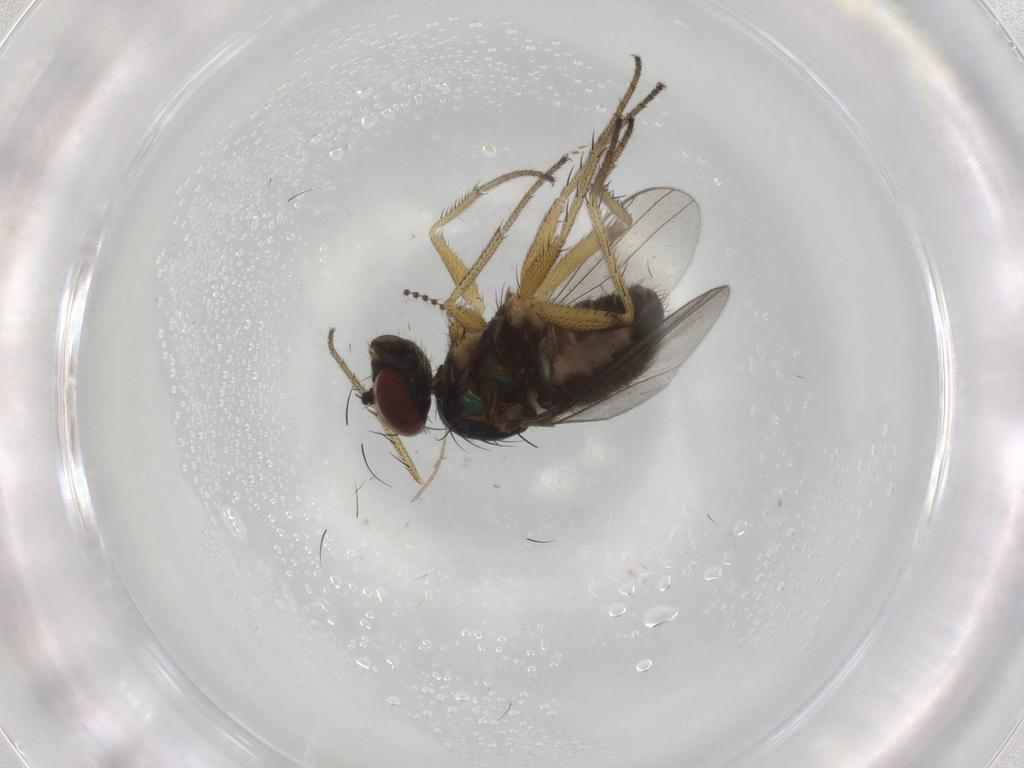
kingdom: Animalia
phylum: Arthropoda
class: Insecta
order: Diptera
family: Dolichopodidae
